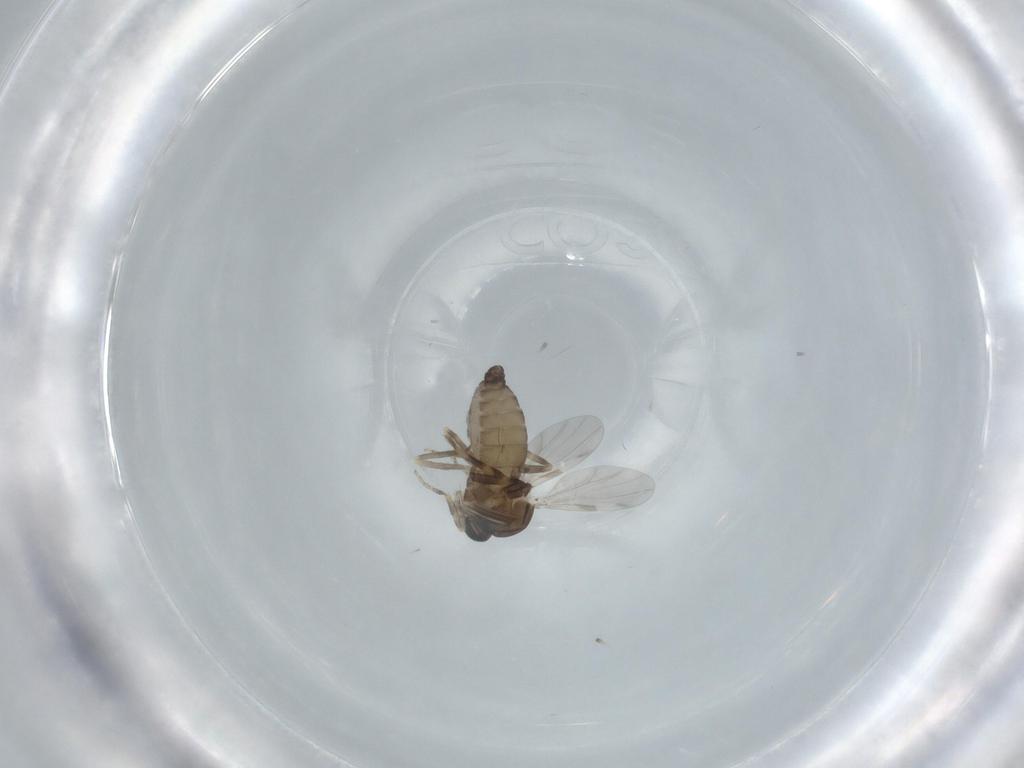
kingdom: Animalia
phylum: Arthropoda
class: Insecta
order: Diptera
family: Ceratopogonidae
